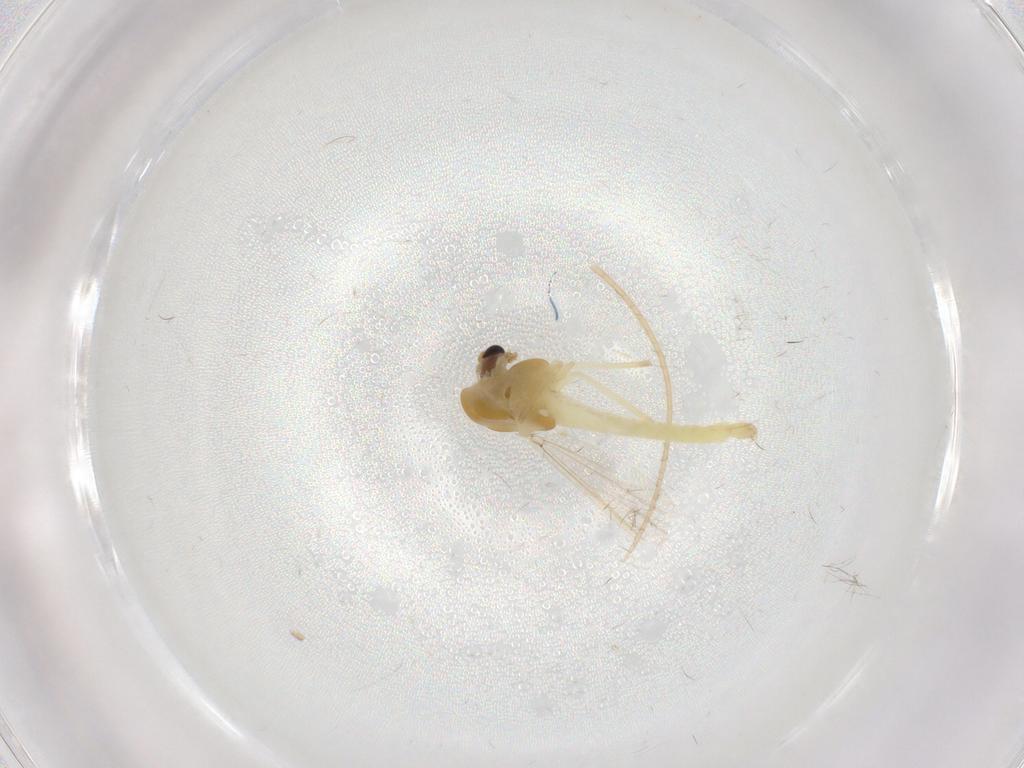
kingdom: Animalia
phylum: Arthropoda
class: Insecta
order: Diptera
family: Chironomidae
